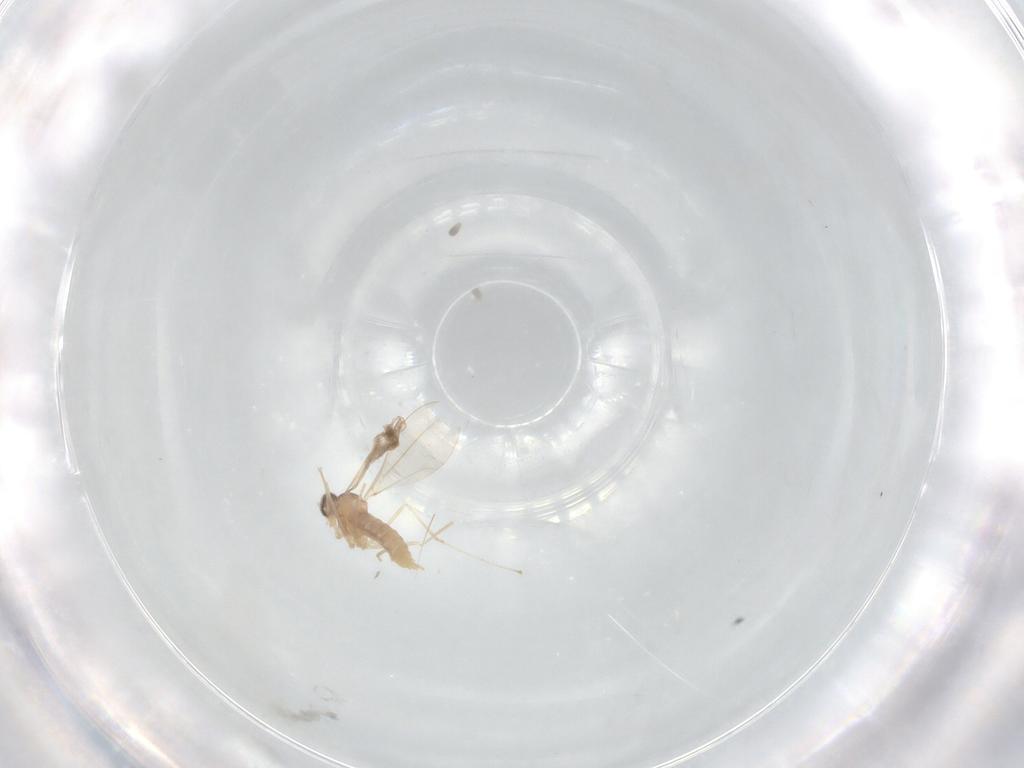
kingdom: Animalia
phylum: Arthropoda
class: Insecta
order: Diptera
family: Cecidomyiidae
